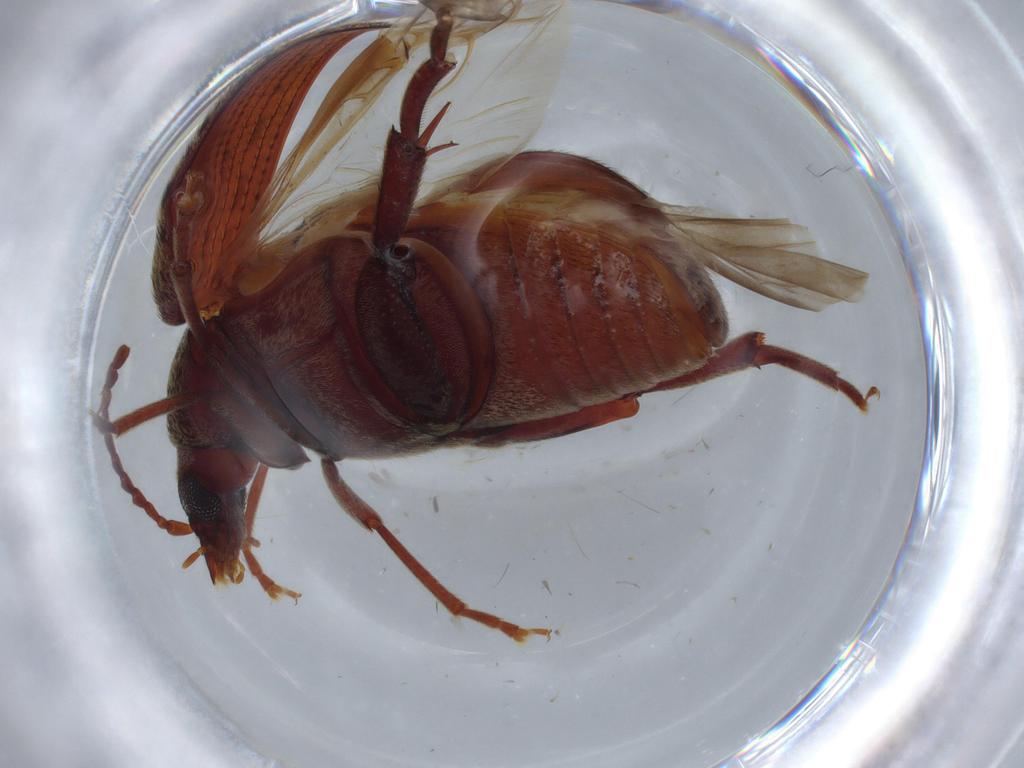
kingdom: Animalia
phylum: Arthropoda
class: Insecta
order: Coleoptera
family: Chrysomelidae
